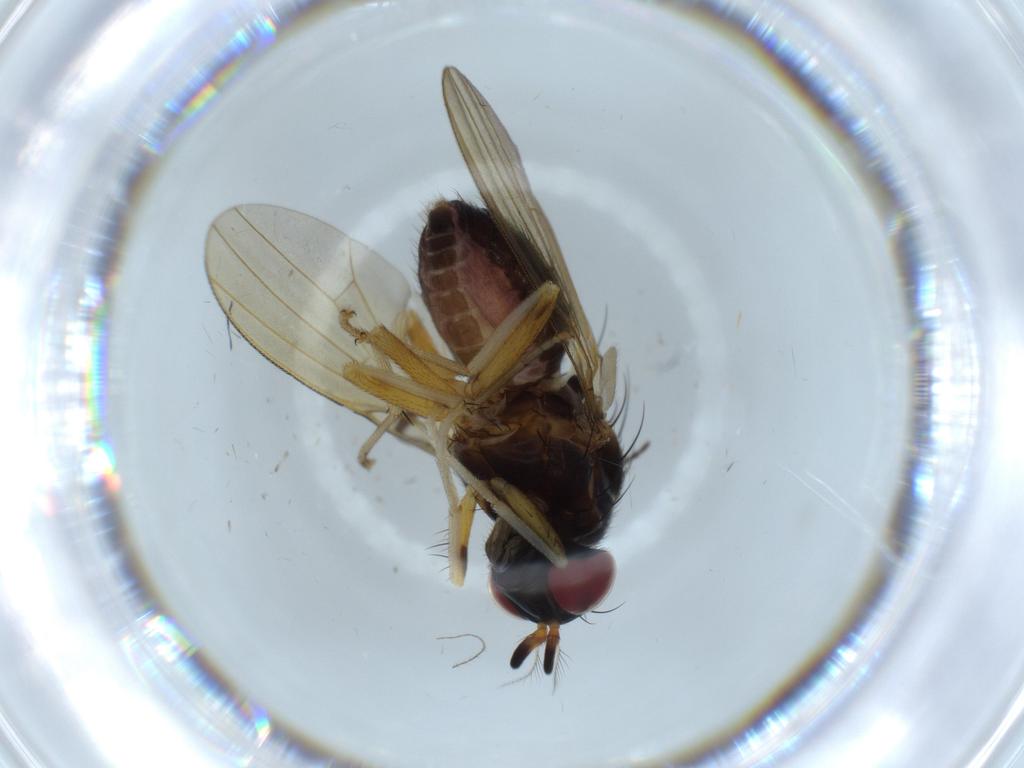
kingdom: Animalia
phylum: Arthropoda
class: Insecta
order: Diptera
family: Sciaridae
